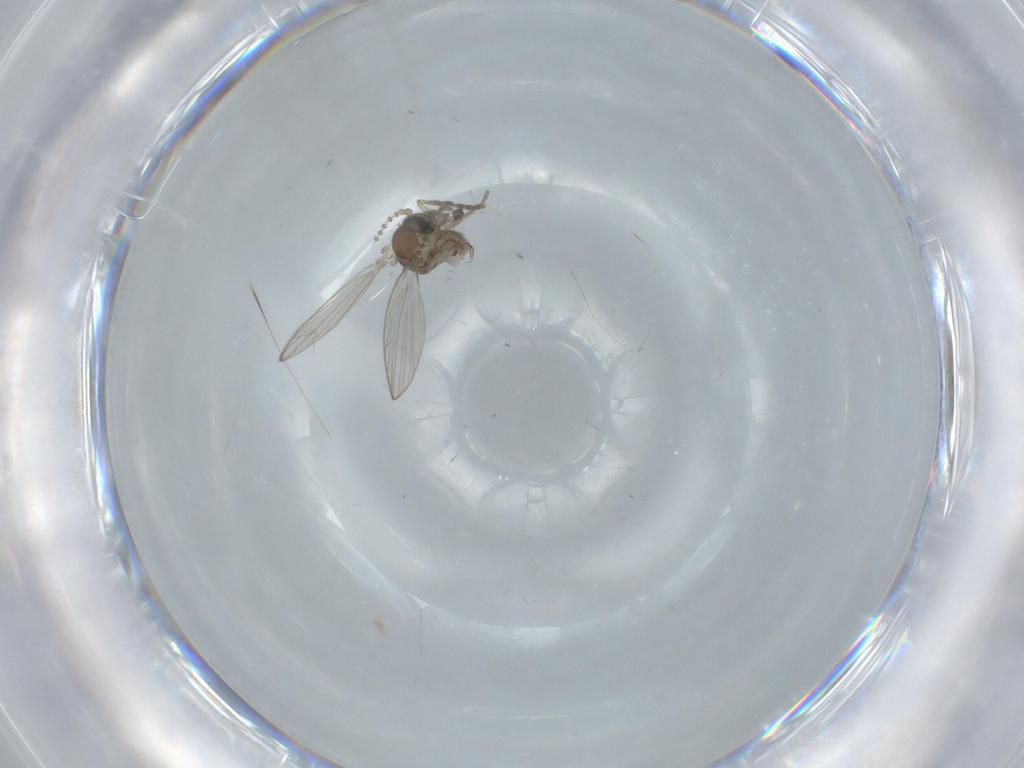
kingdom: Animalia
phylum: Arthropoda
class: Insecta
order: Diptera
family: Psychodidae
